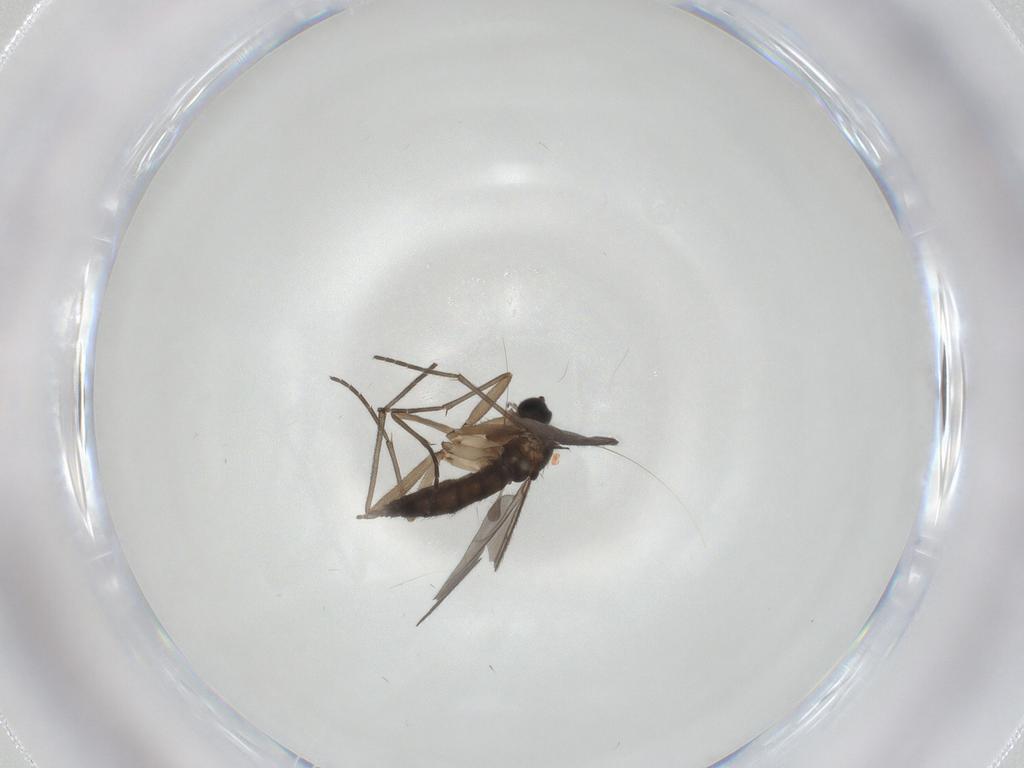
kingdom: Animalia
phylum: Arthropoda
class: Insecta
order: Diptera
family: Sciaridae
